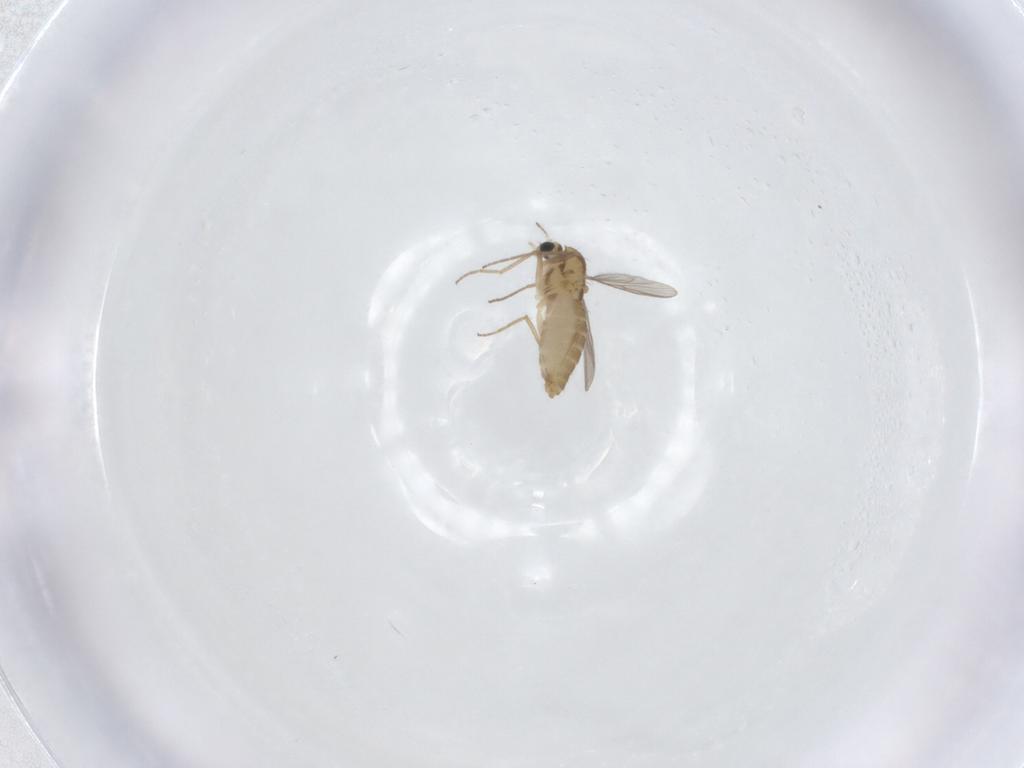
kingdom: Animalia
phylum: Arthropoda
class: Insecta
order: Diptera
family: Chironomidae
